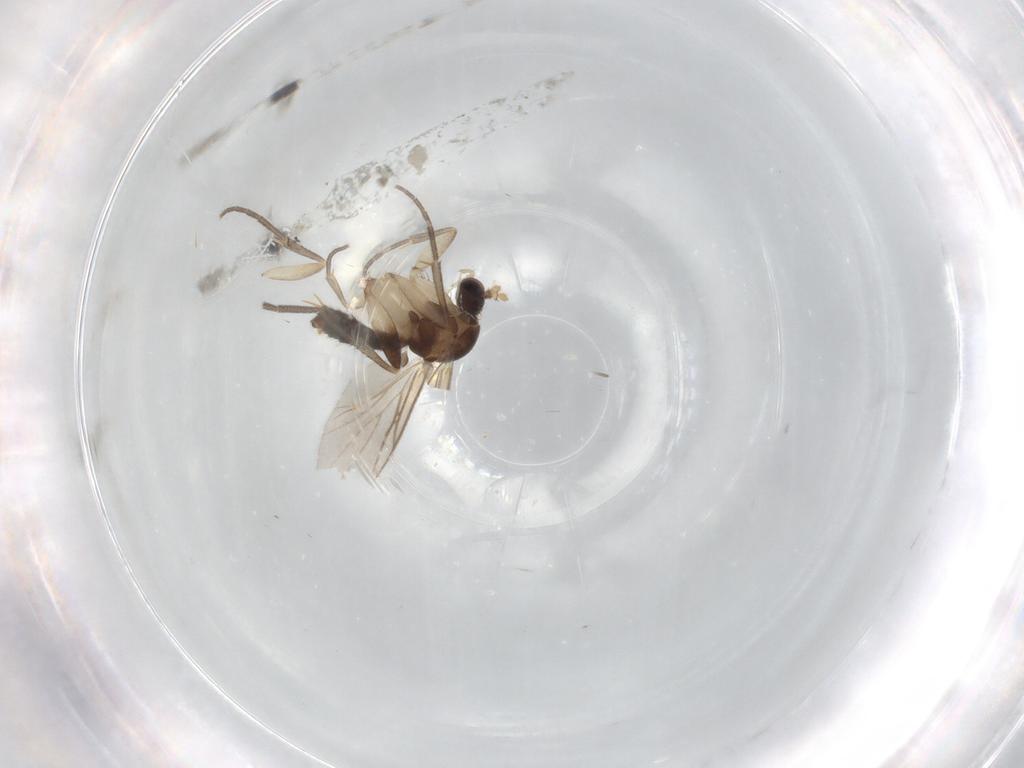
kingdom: Animalia
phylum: Arthropoda
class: Insecta
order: Diptera
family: Mycetophilidae
